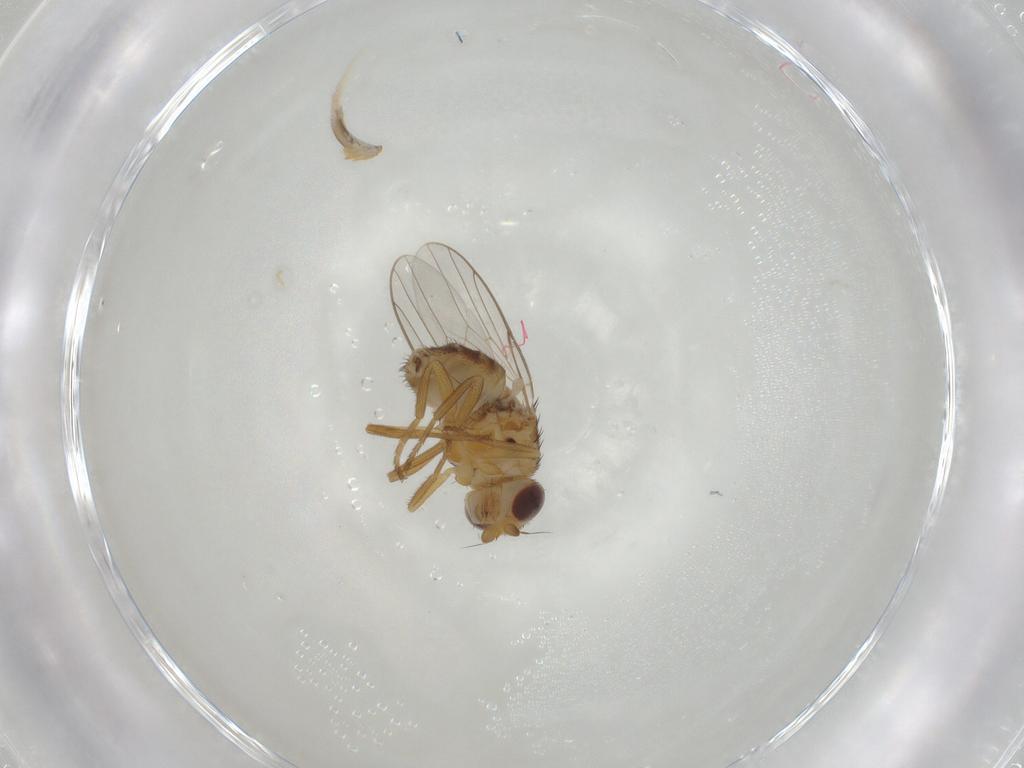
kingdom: Animalia
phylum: Arthropoda
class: Insecta
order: Diptera
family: Chloropidae
